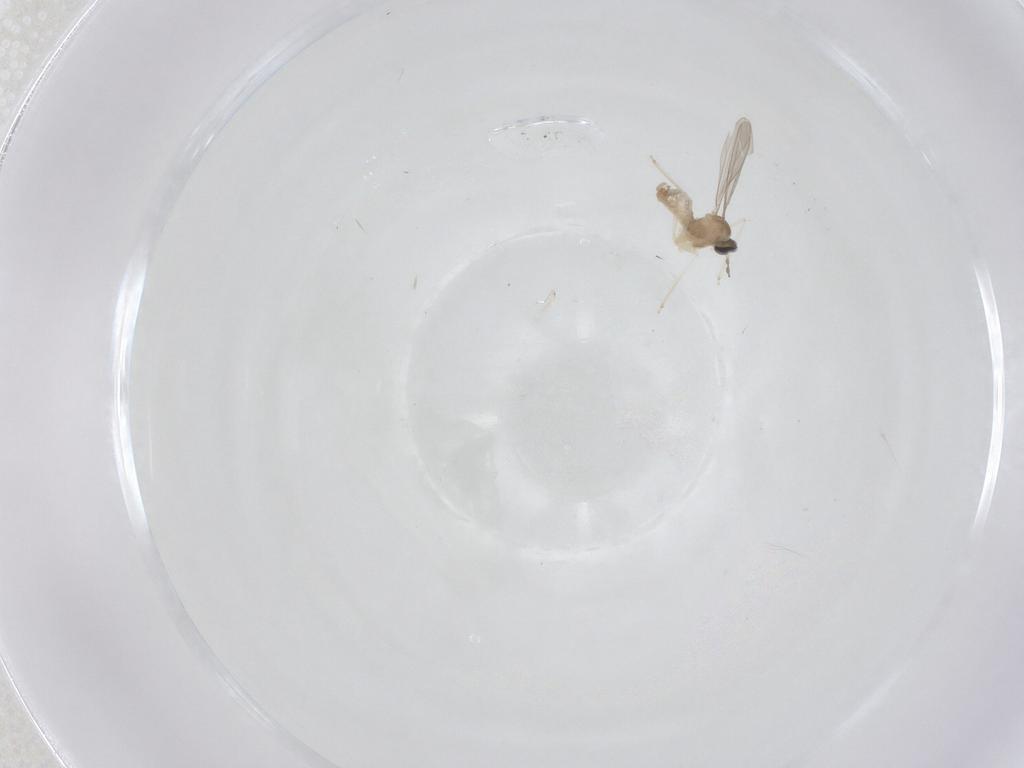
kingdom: Animalia
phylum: Arthropoda
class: Insecta
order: Diptera
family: Cecidomyiidae
